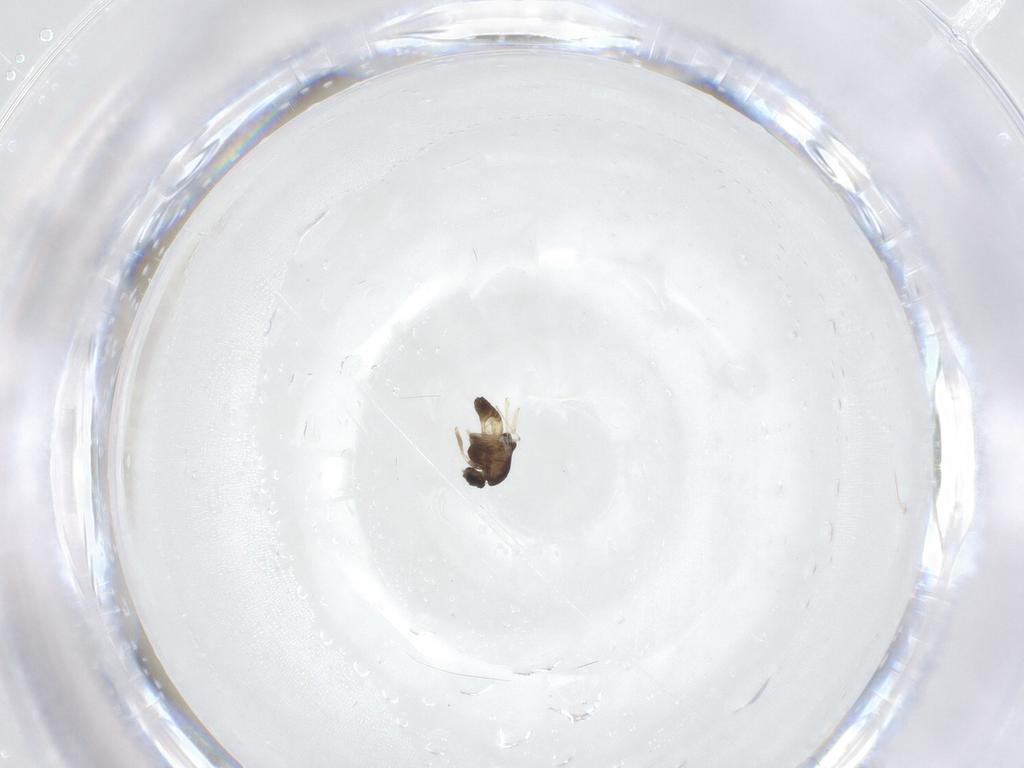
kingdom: Animalia
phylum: Arthropoda
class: Insecta
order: Diptera
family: Chironomidae
